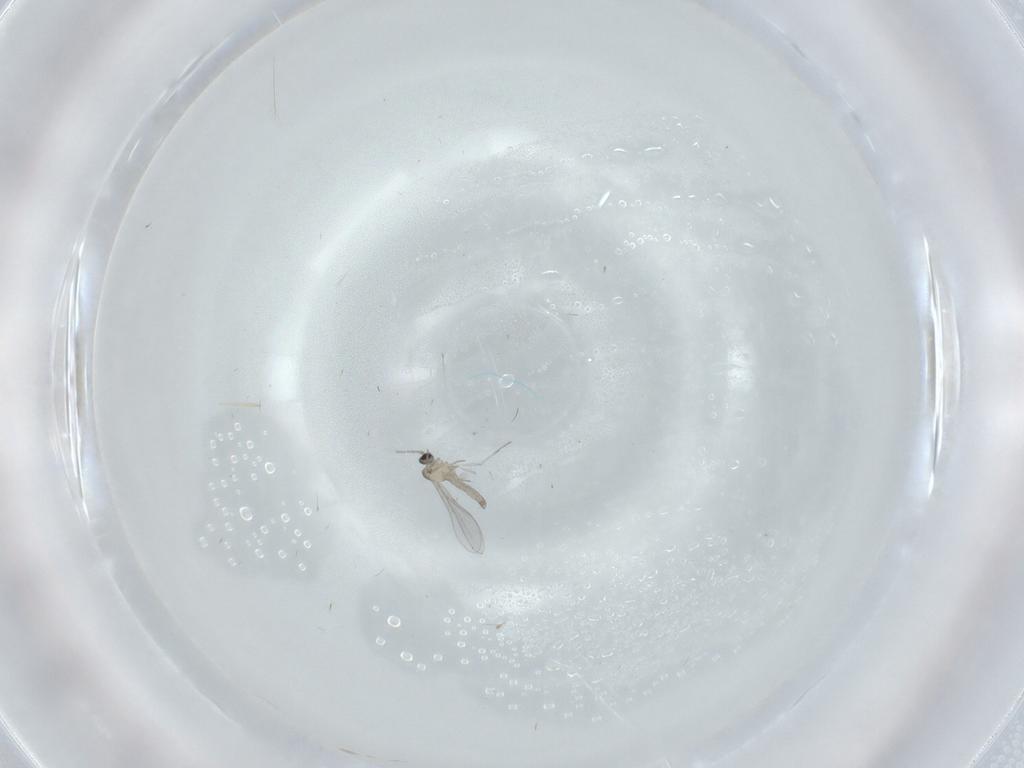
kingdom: Animalia
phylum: Arthropoda
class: Insecta
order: Diptera
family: Cecidomyiidae
